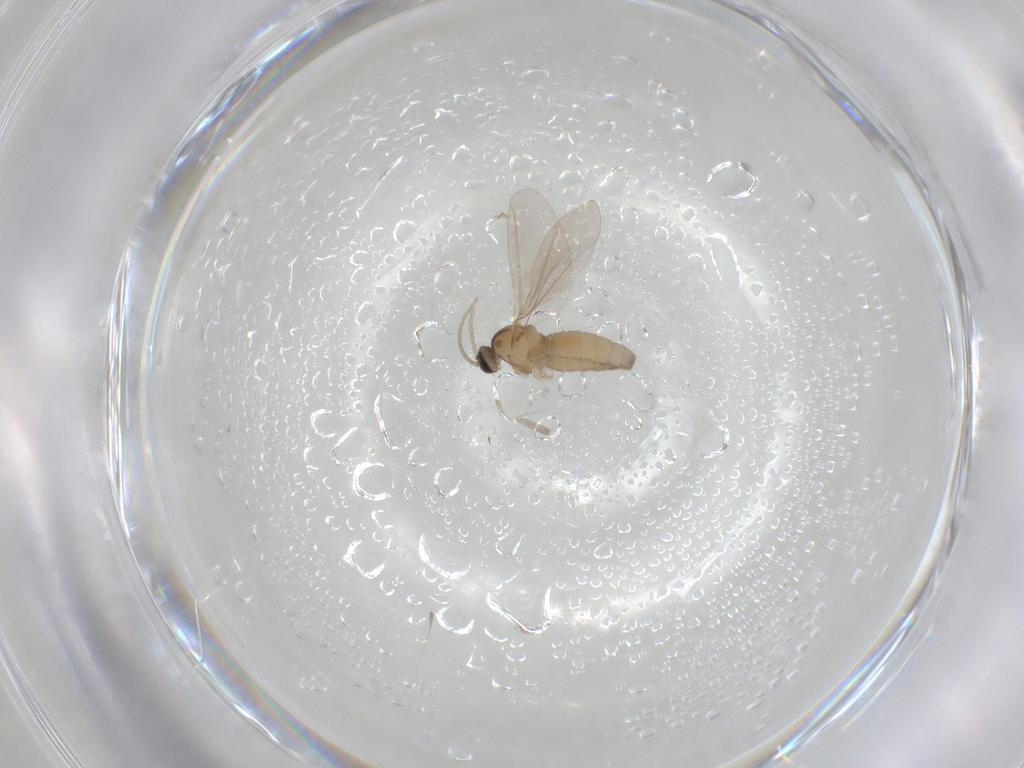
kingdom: Animalia
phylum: Arthropoda
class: Insecta
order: Diptera
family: Cecidomyiidae
